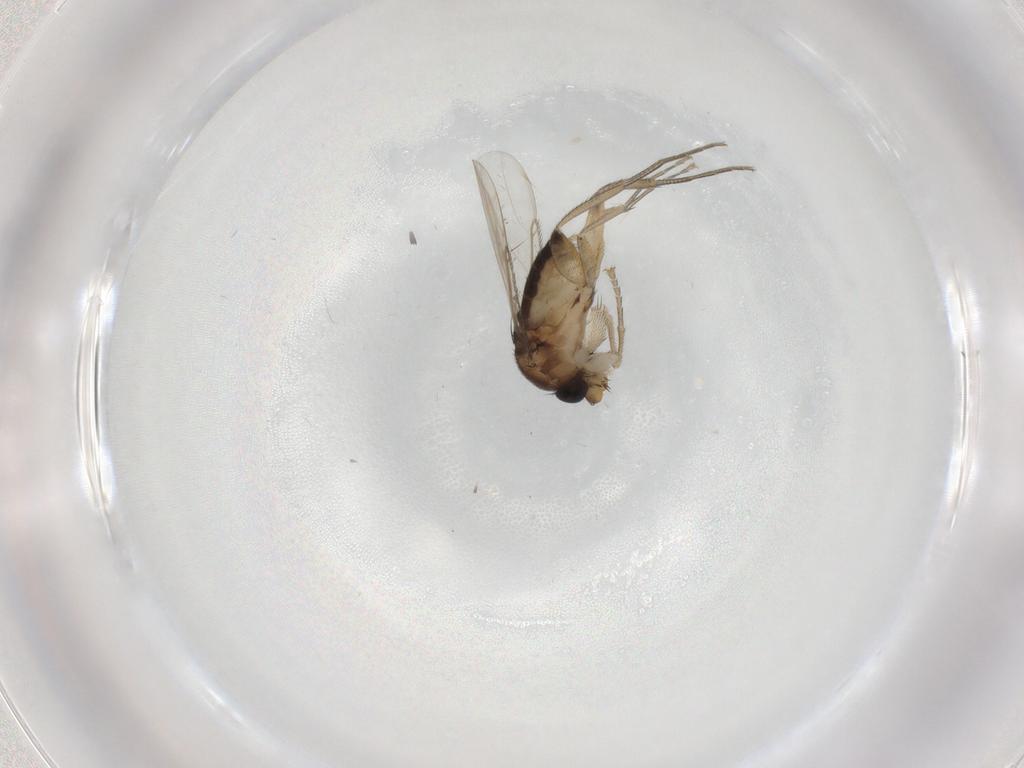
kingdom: Animalia
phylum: Arthropoda
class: Insecta
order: Diptera
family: Phoridae
